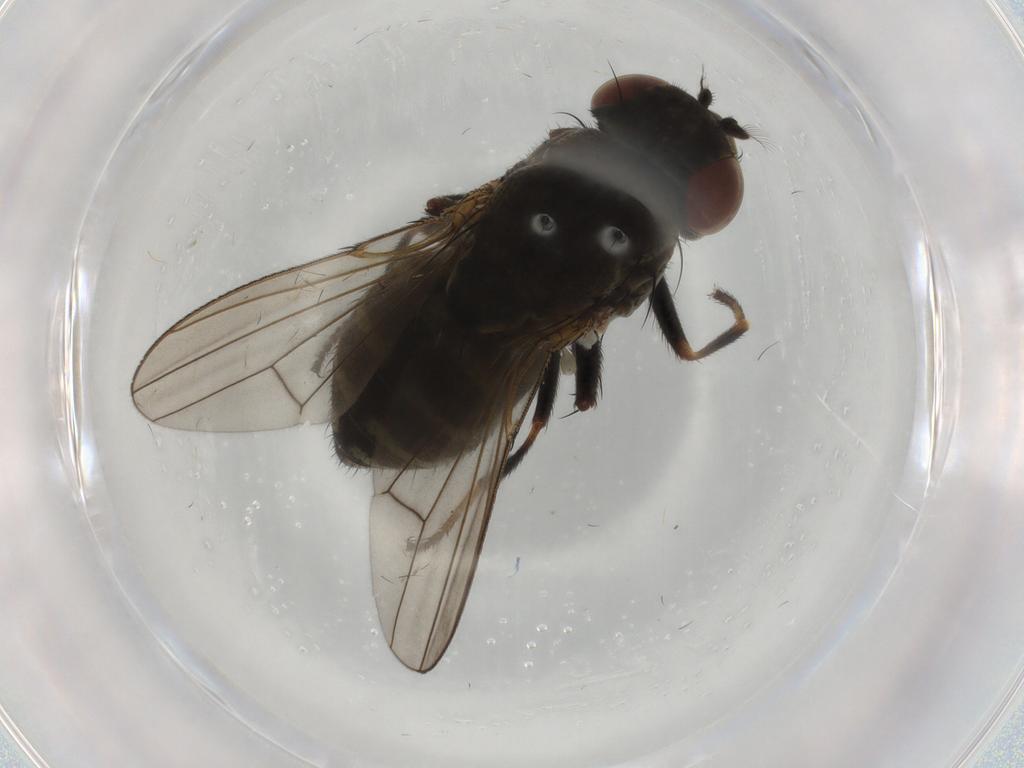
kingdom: Animalia
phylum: Arthropoda
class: Insecta
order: Diptera
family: Ephydridae
